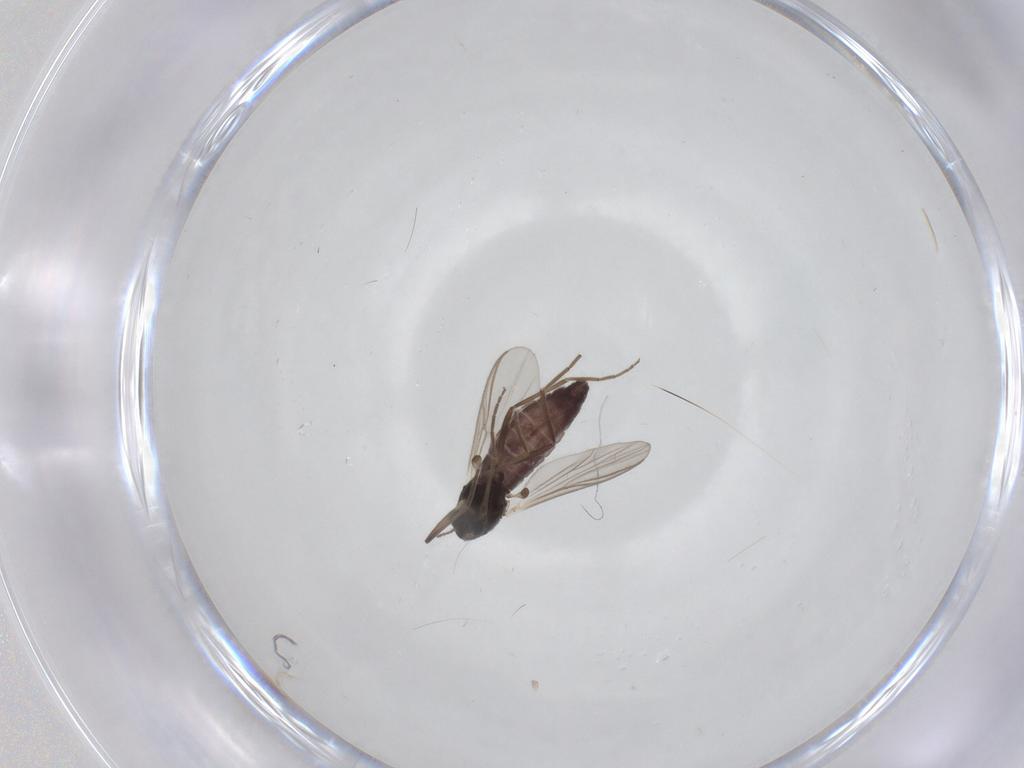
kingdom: Animalia
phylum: Arthropoda
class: Insecta
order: Diptera
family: Chironomidae
